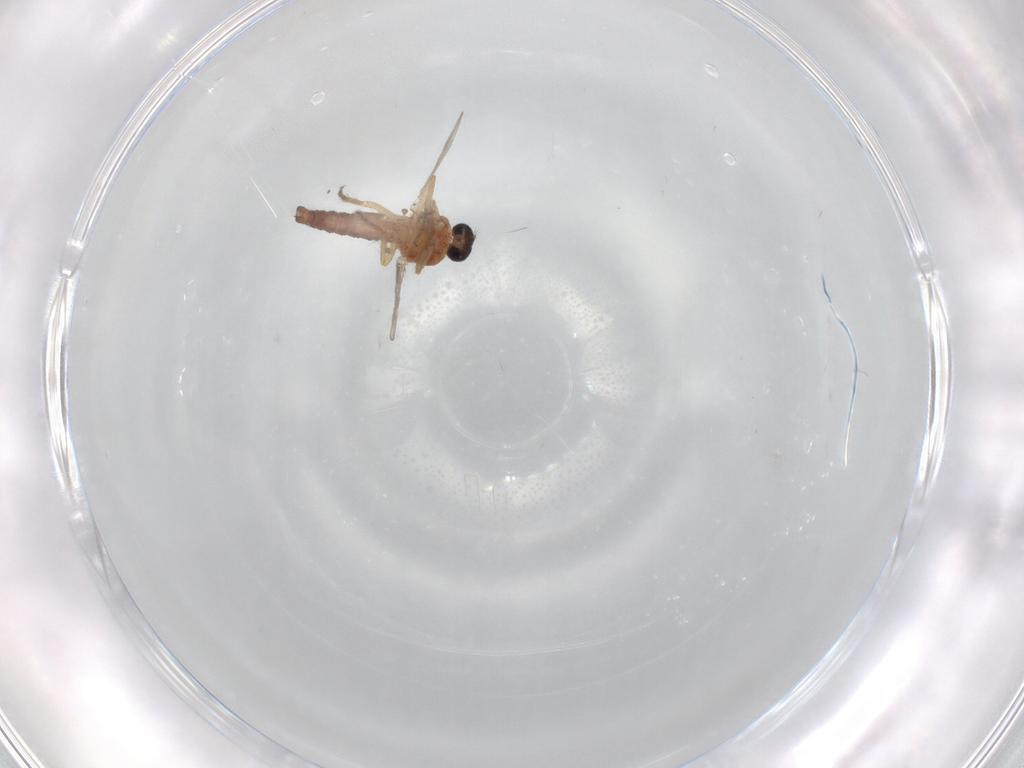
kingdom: Animalia
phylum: Arthropoda
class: Insecta
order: Diptera
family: Ceratopogonidae
